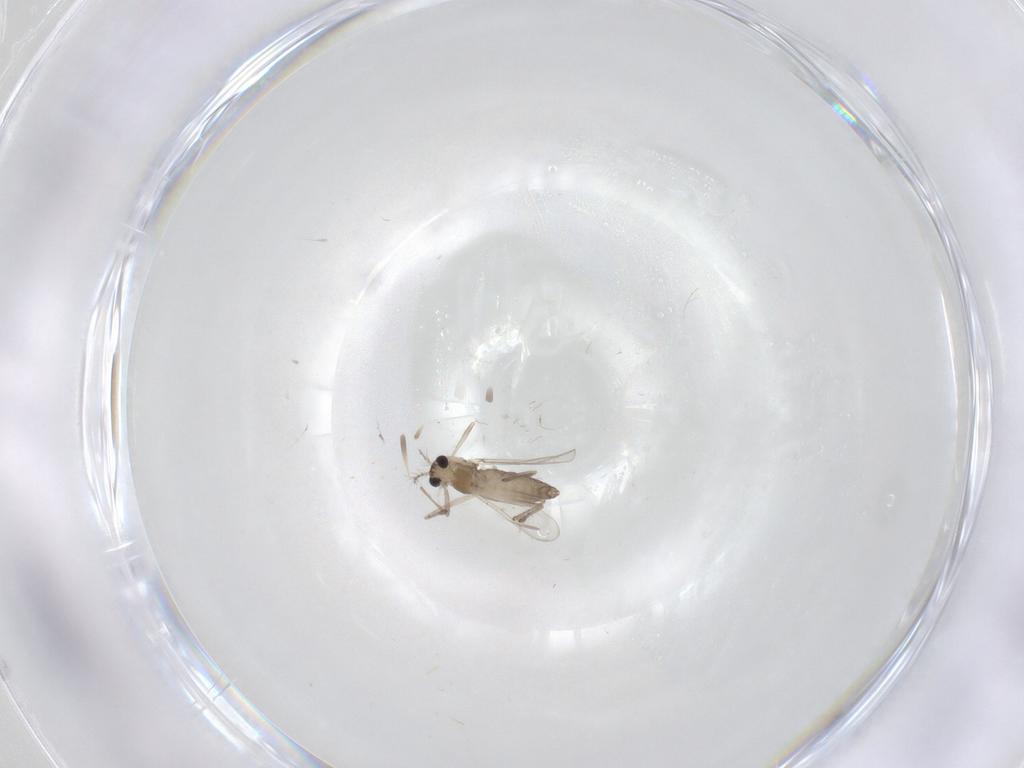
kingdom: Animalia
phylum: Arthropoda
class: Insecta
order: Diptera
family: Chironomidae
